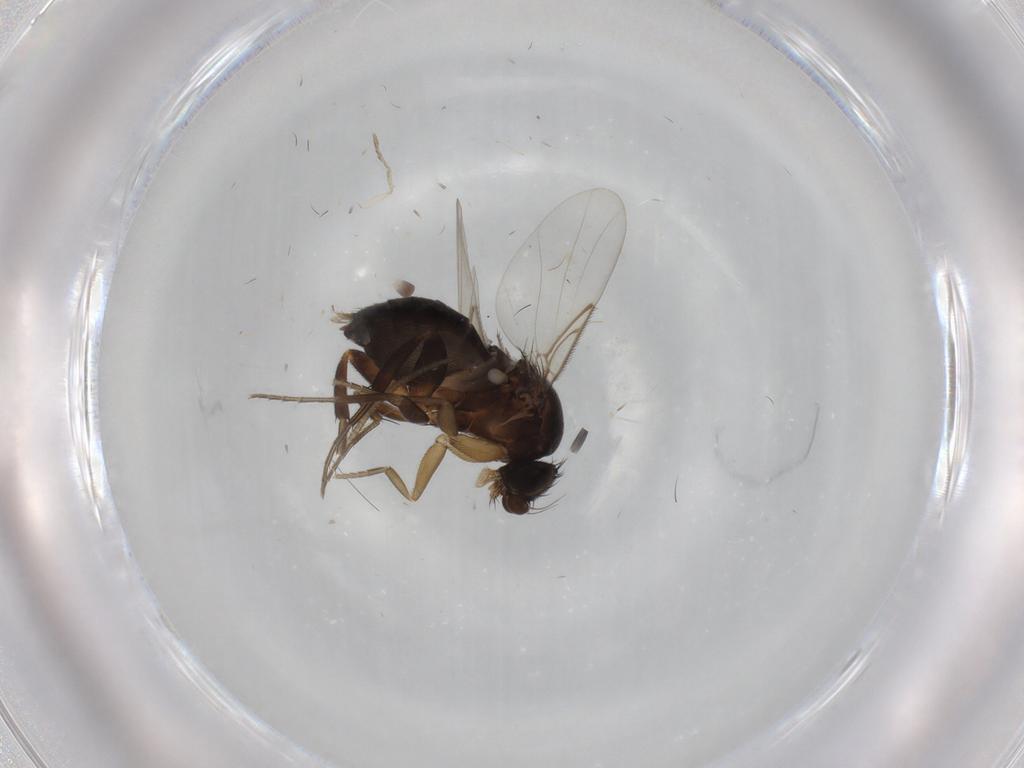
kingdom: Animalia
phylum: Arthropoda
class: Insecta
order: Diptera
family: Phoridae
